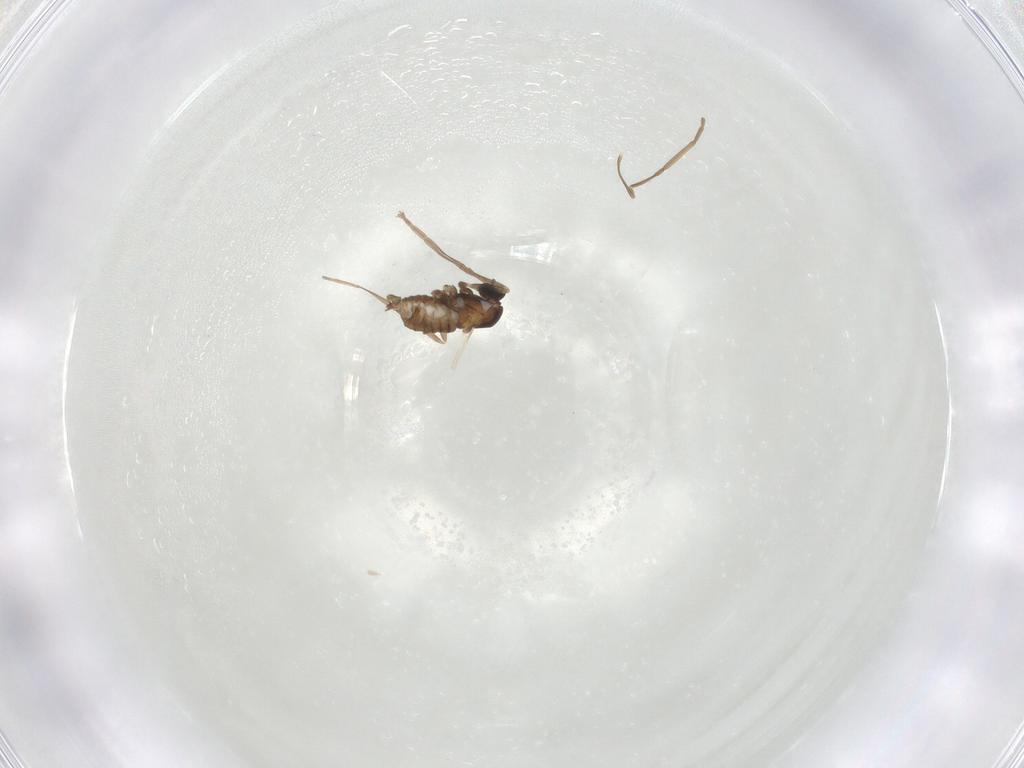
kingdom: Animalia
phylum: Arthropoda
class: Insecta
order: Diptera
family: Cecidomyiidae
